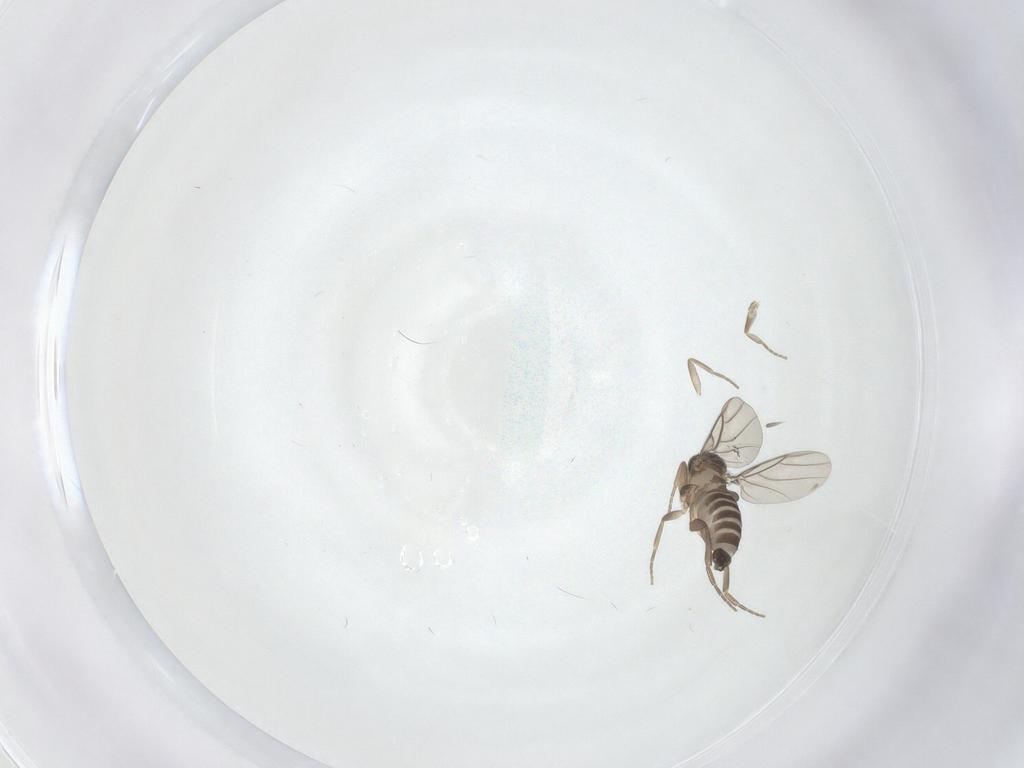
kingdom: Animalia
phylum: Arthropoda
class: Insecta
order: Diptera
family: Phoridae
